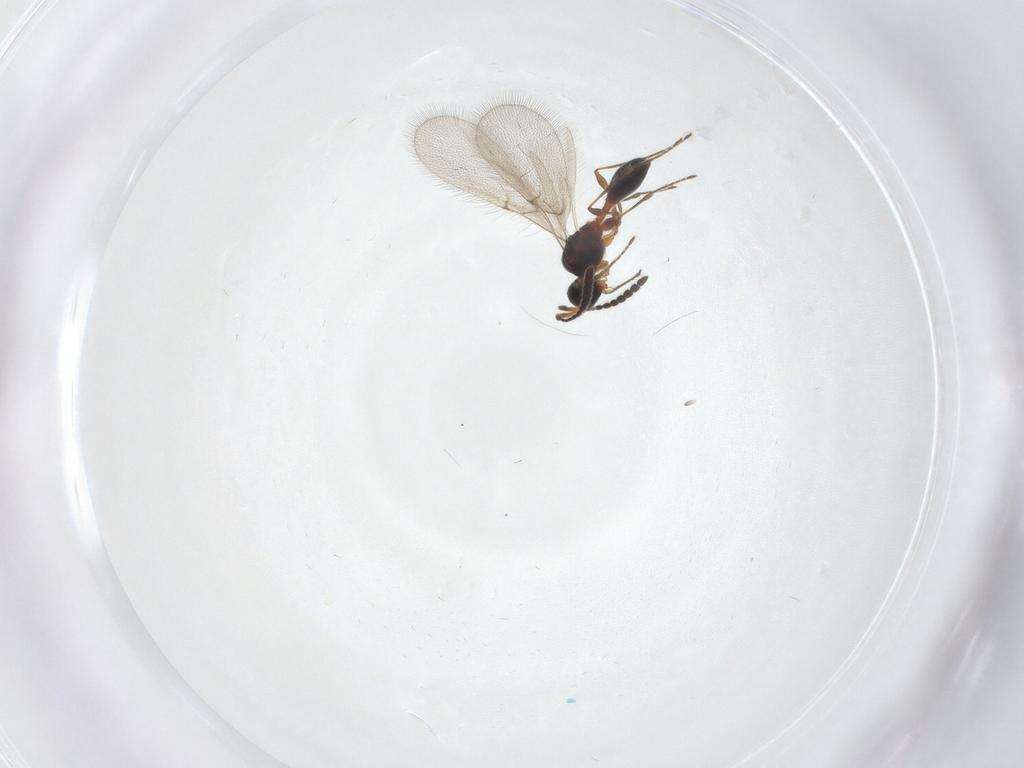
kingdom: Animalia
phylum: Arthropoda
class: Insecta
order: Hymenoptera
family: Diapriidae
